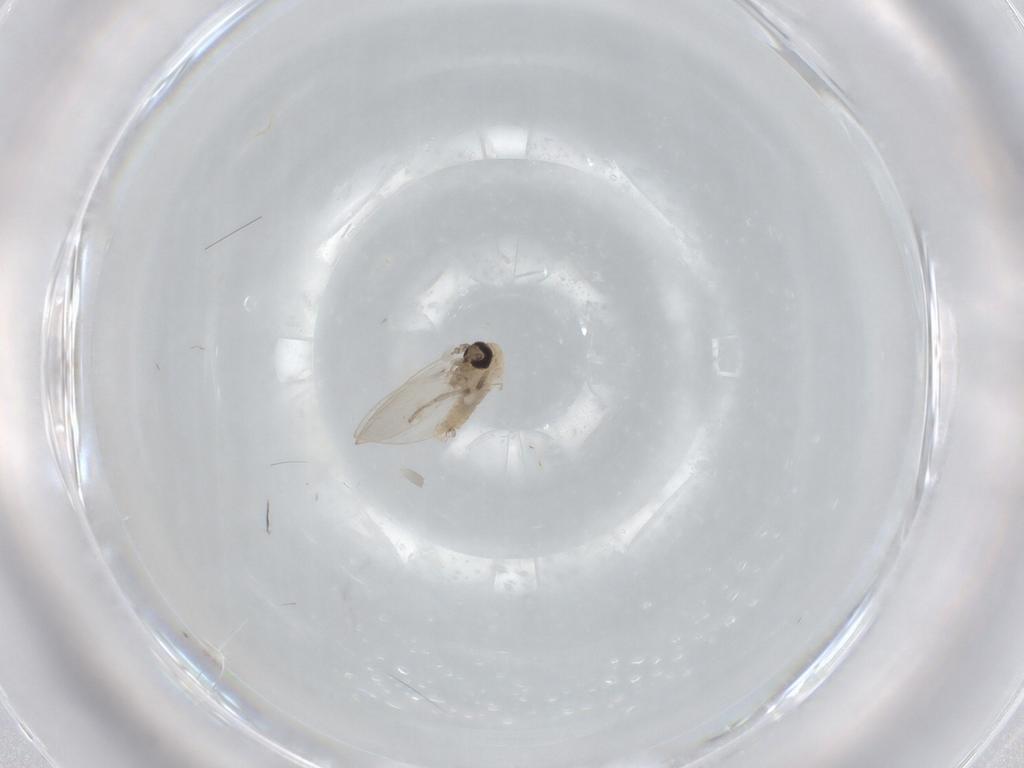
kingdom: Animalia
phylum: Arthropoda
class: Insecta
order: Diptera
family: Psychodidae
